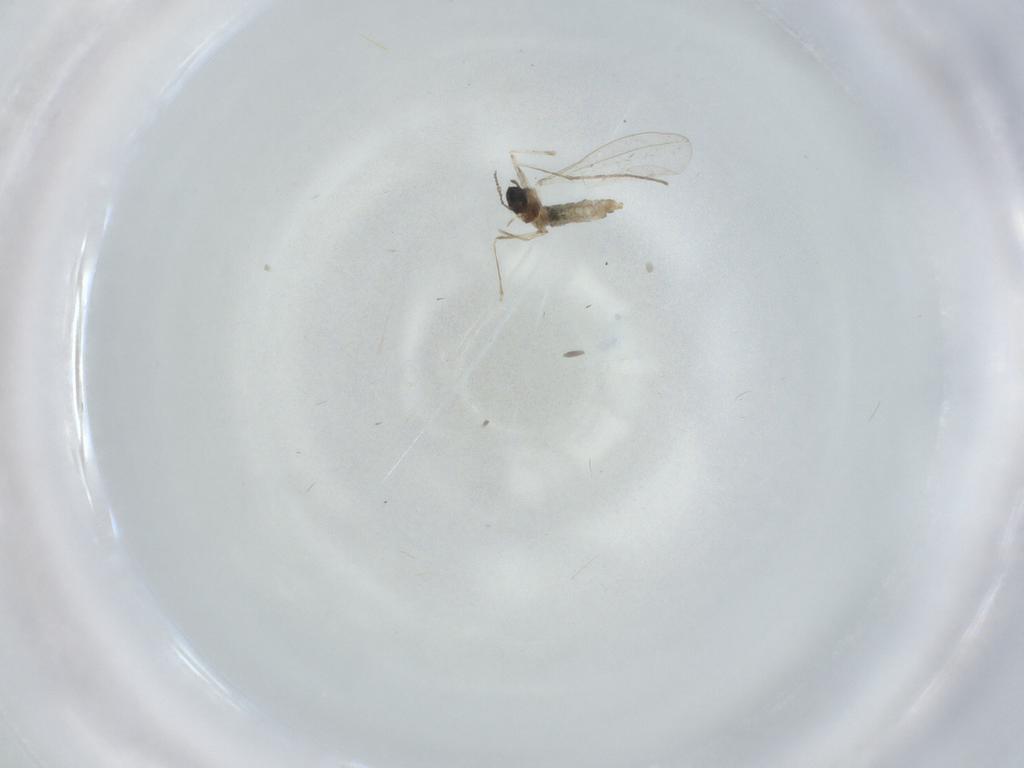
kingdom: Animalia
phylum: Arthropoda
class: Insecta
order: Diptera
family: Cecidomyiidae
